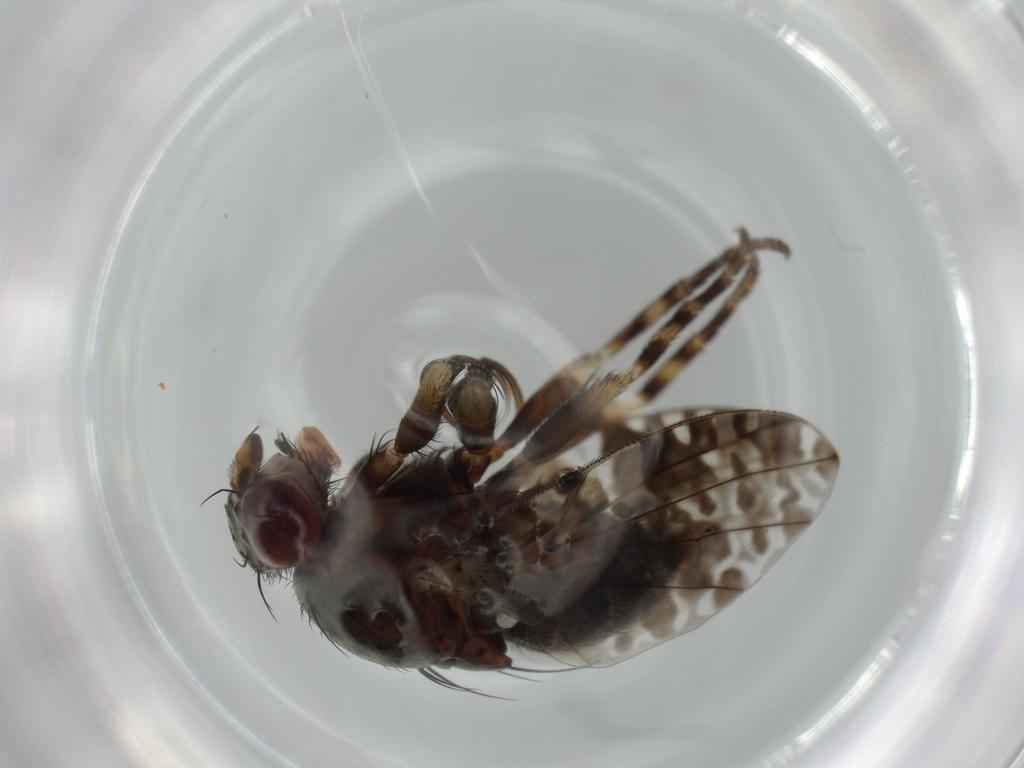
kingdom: Animalia
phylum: Arthropoda
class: Insecta
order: Diptera
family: Odiniidae
